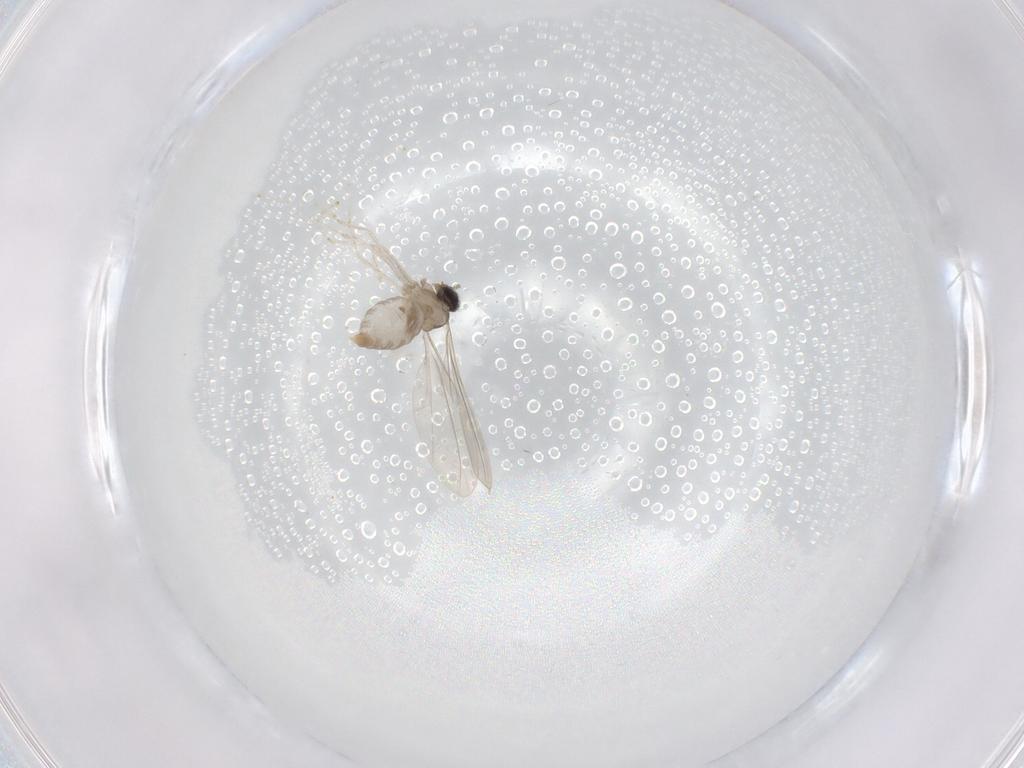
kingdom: Animalia
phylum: Arthropoda
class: Insecta
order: Diptera
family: Cecidomyiidae
